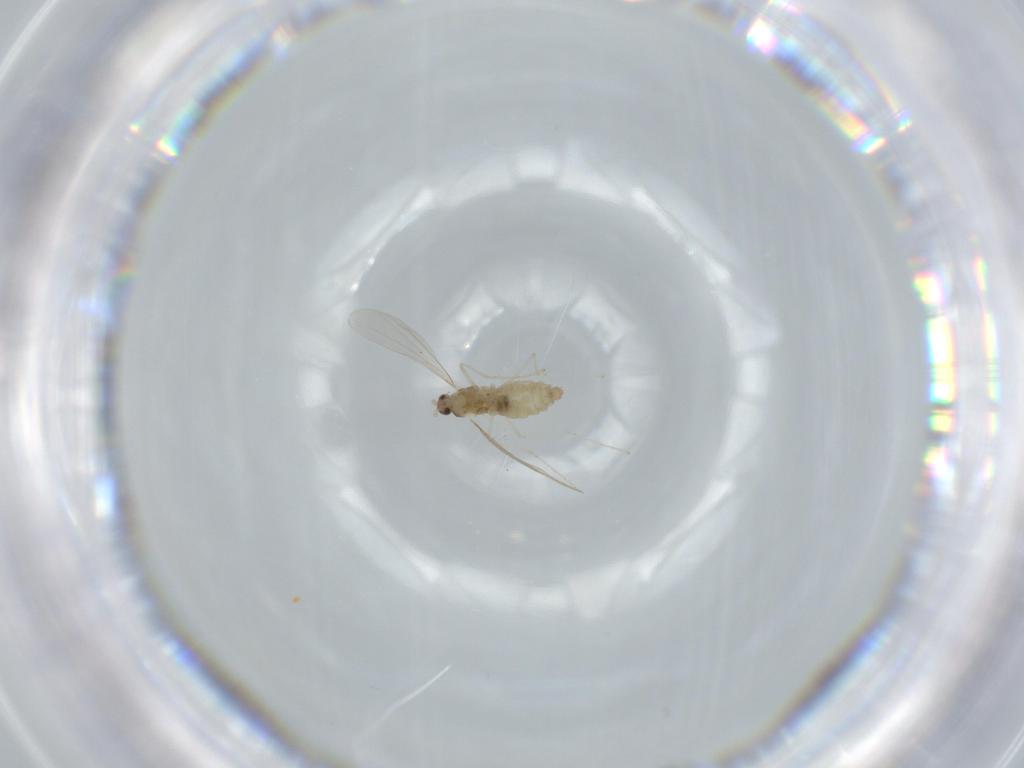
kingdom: Animalia
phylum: Arthropoda
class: Insecta
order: Diptera
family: Cecidomyiidae
